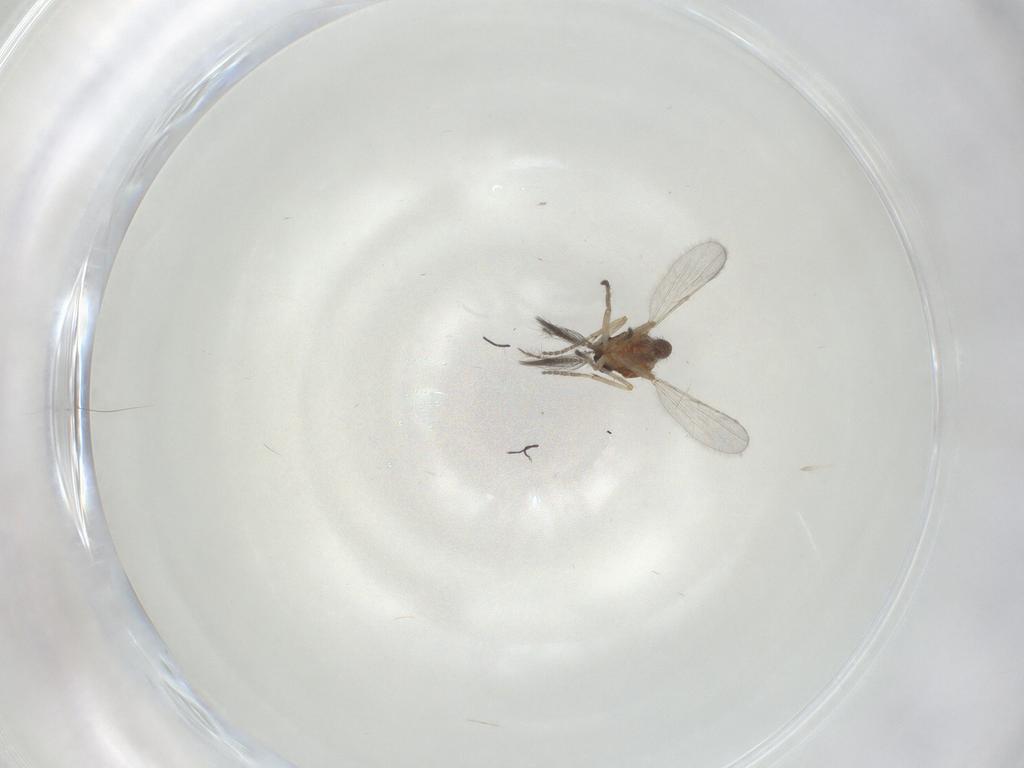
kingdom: Animalia
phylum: Arthropoda
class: Insecta
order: Diptera
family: Ceratopogonidae
